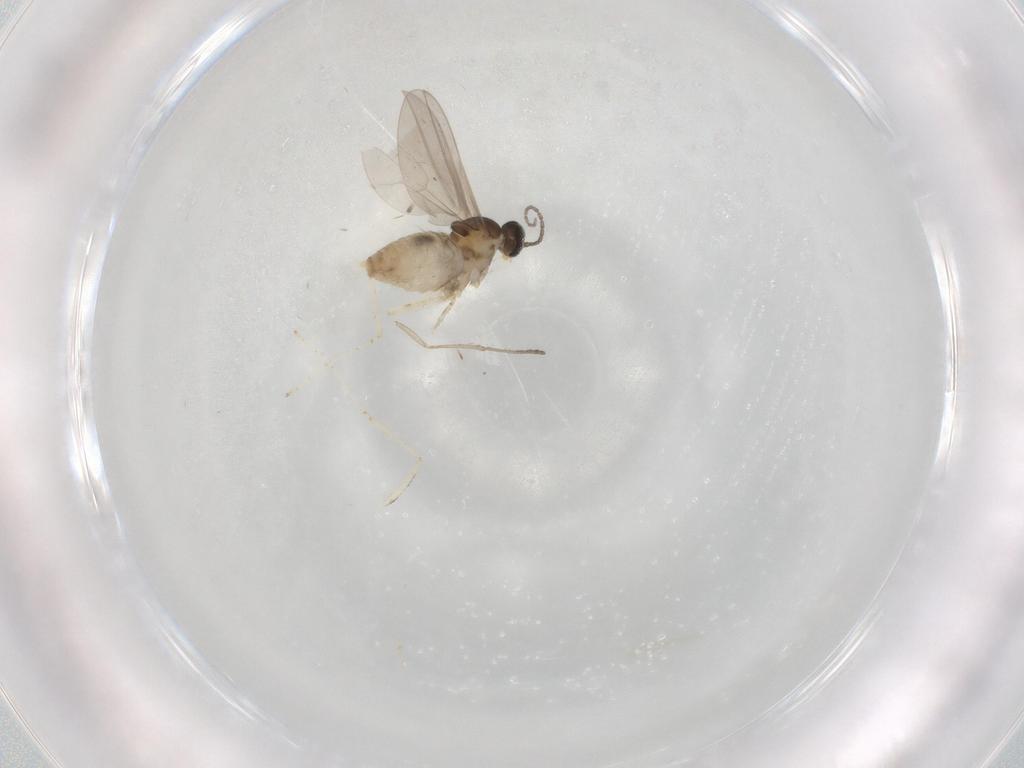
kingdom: Animalia
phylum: Arthropoda
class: Insecta
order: Diptera
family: Cecidomyiidae
